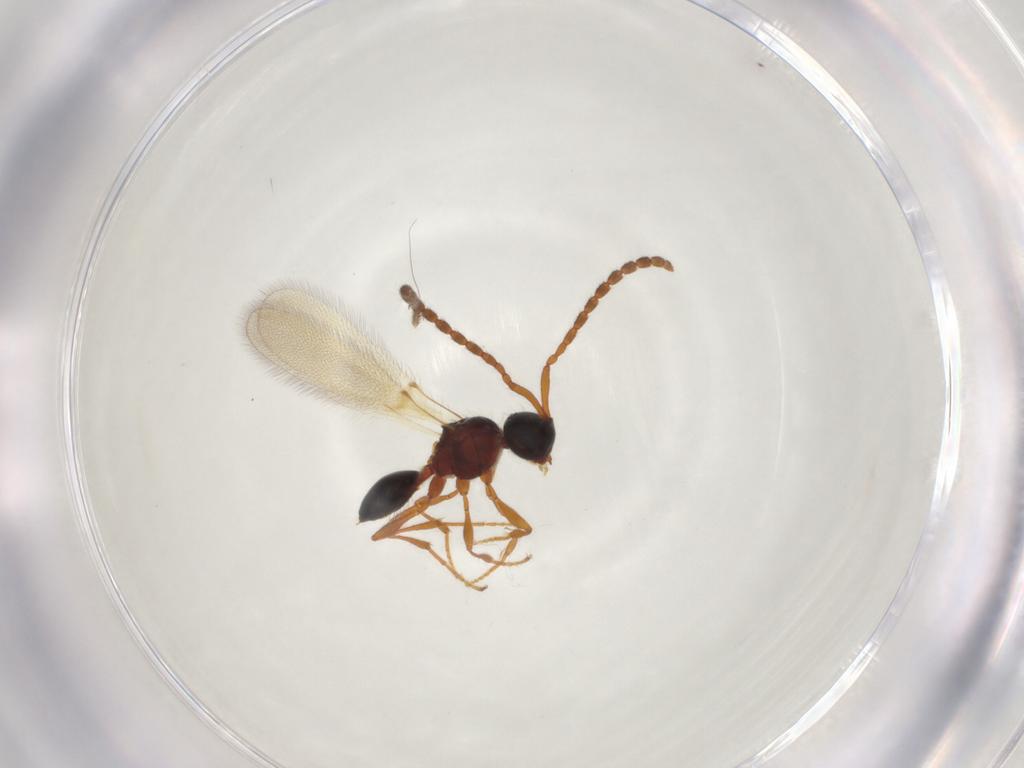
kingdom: Animalia
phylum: Arthropoda
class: Insecta
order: Hymenoptera
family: Diapriidae
